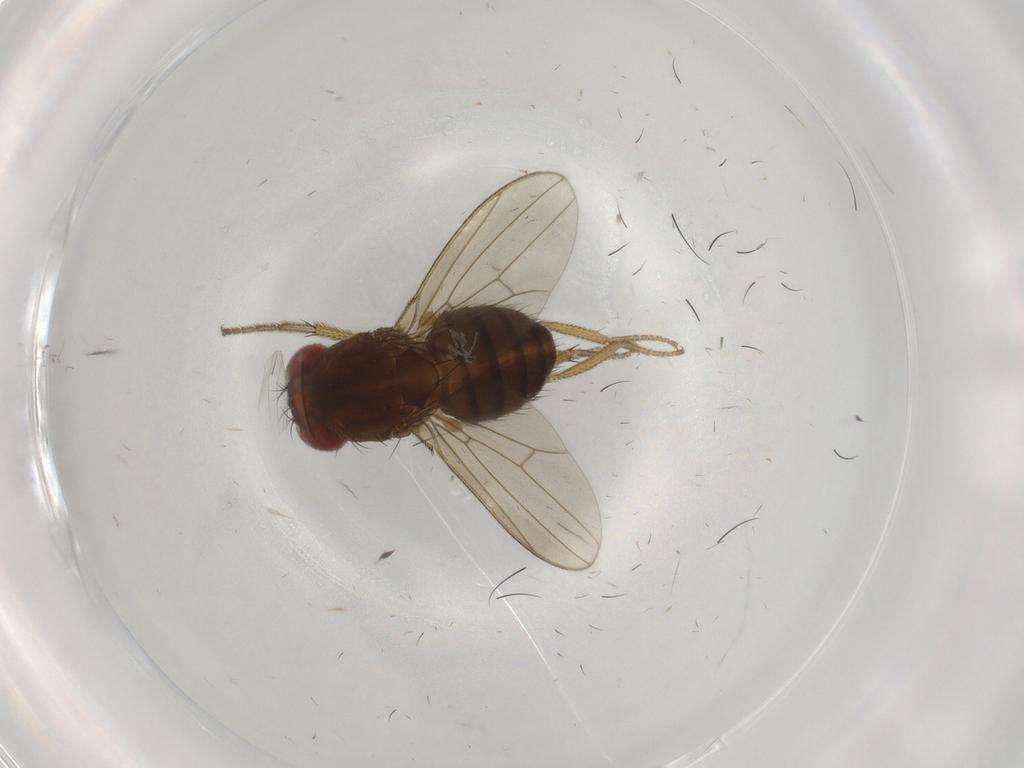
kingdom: Animalia
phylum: Arthropoda
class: Insecta
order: Diptera
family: Drosophilidae
